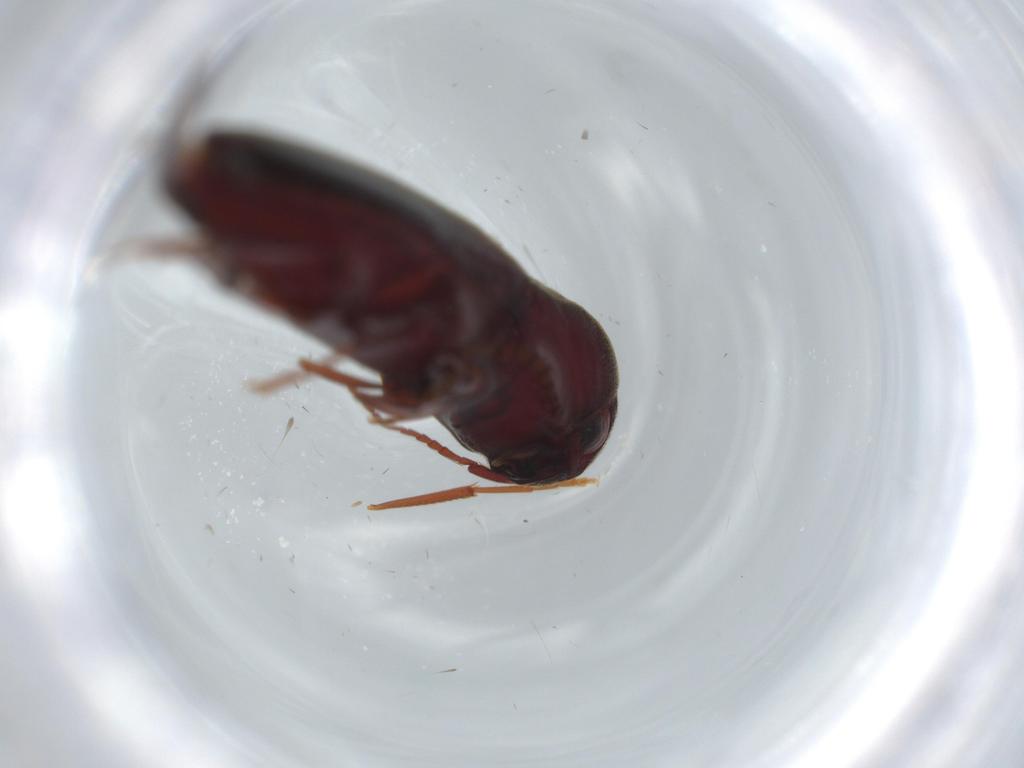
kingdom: Animalia
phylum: Arthropoda
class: Insecta
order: Coleoptera
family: Eucnemidae
